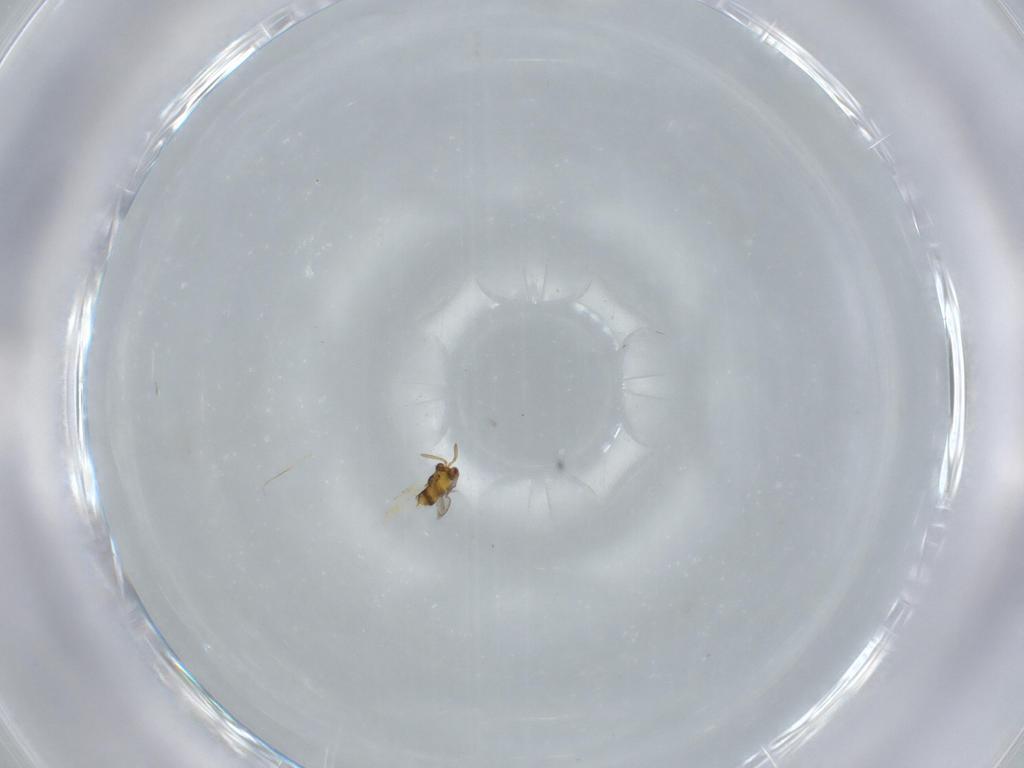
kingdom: Animalia
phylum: Arthropoda
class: Insecta
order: Hymenoptera
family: Aphelinidae
